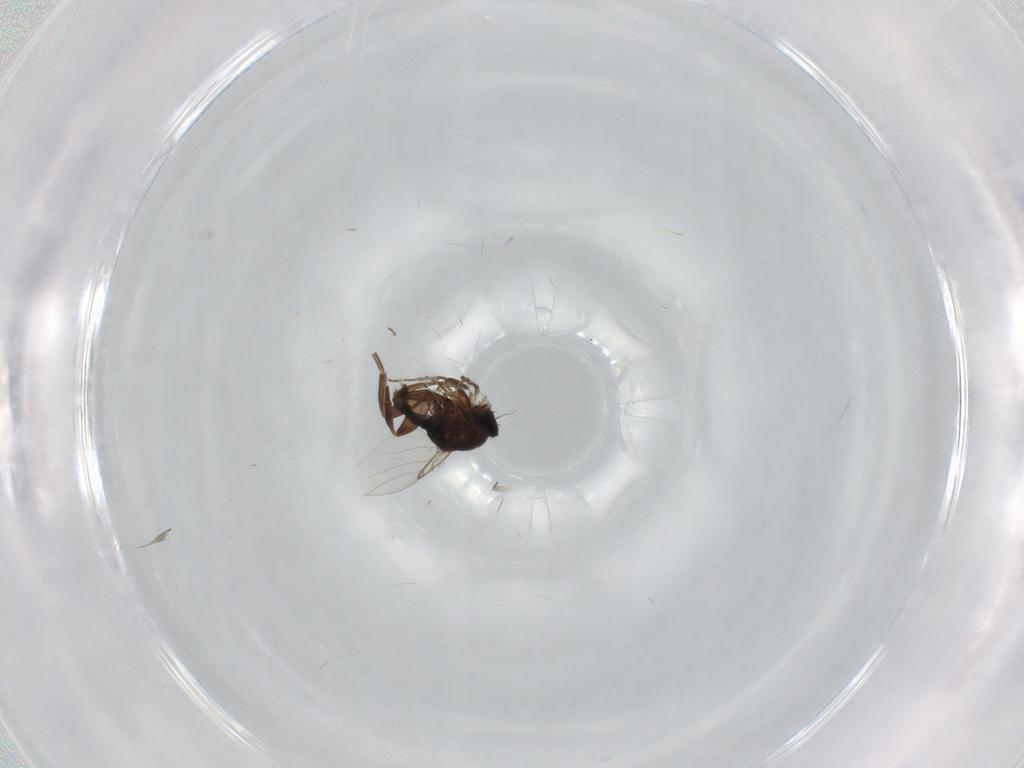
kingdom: Animalia
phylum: Arthropoda
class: Insecta
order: Diptera
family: Phoridae
